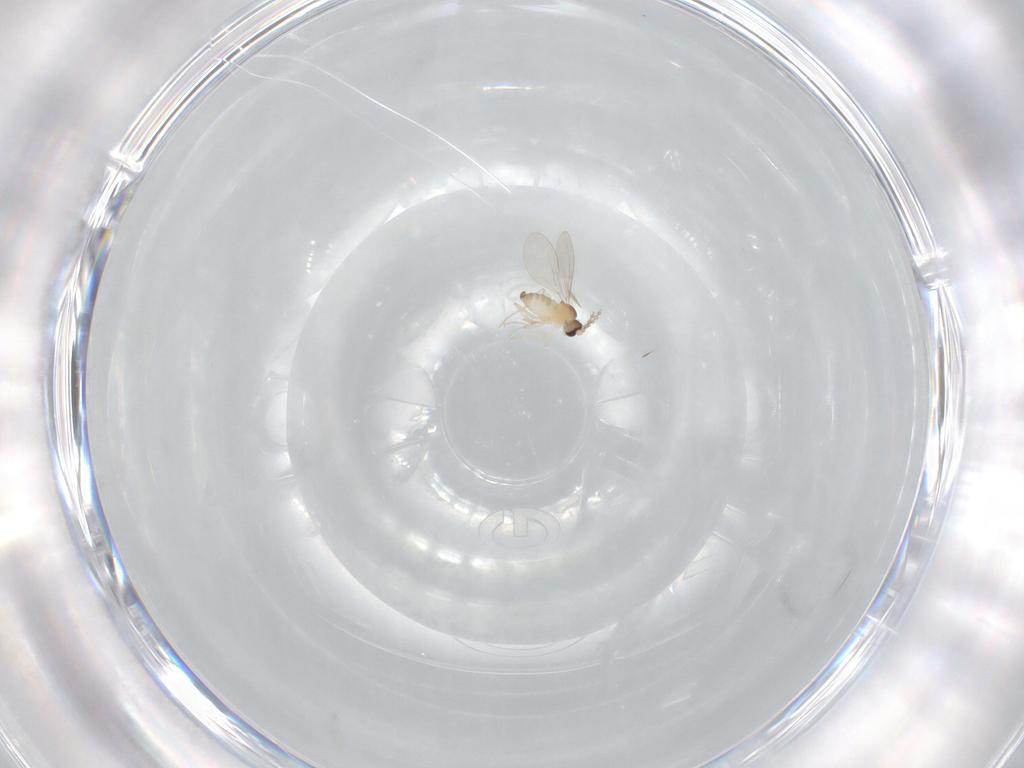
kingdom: Animalia
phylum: Arthropoda
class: Insecta
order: Diptera
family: Cecidomyiidae
